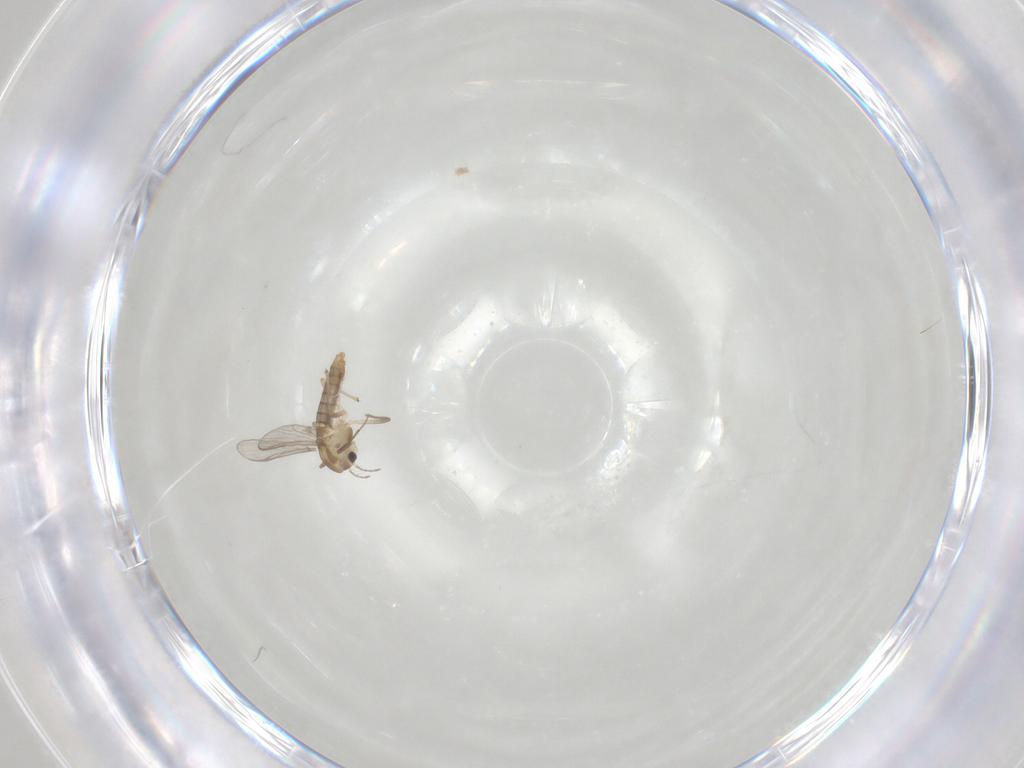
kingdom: Animalia
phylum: Arthropoda
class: Insecta
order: Diptera
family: Chironomidae
